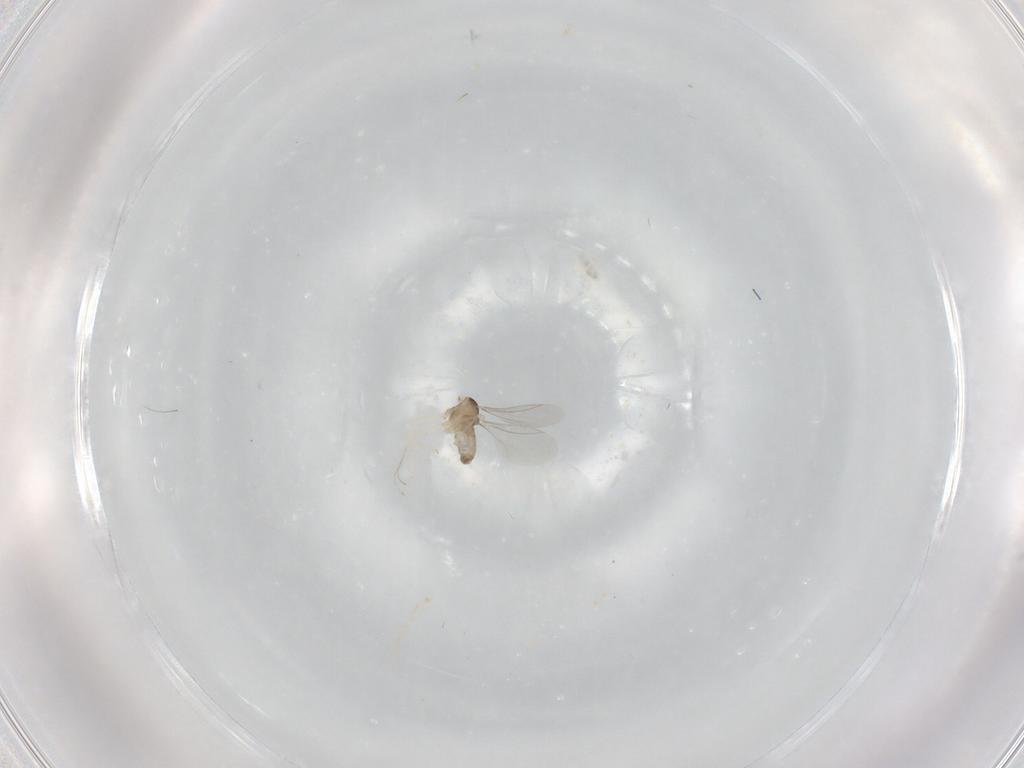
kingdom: Animalia
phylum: Arthropoda
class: Insecta
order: Diptera
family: Cecidomyiidae
